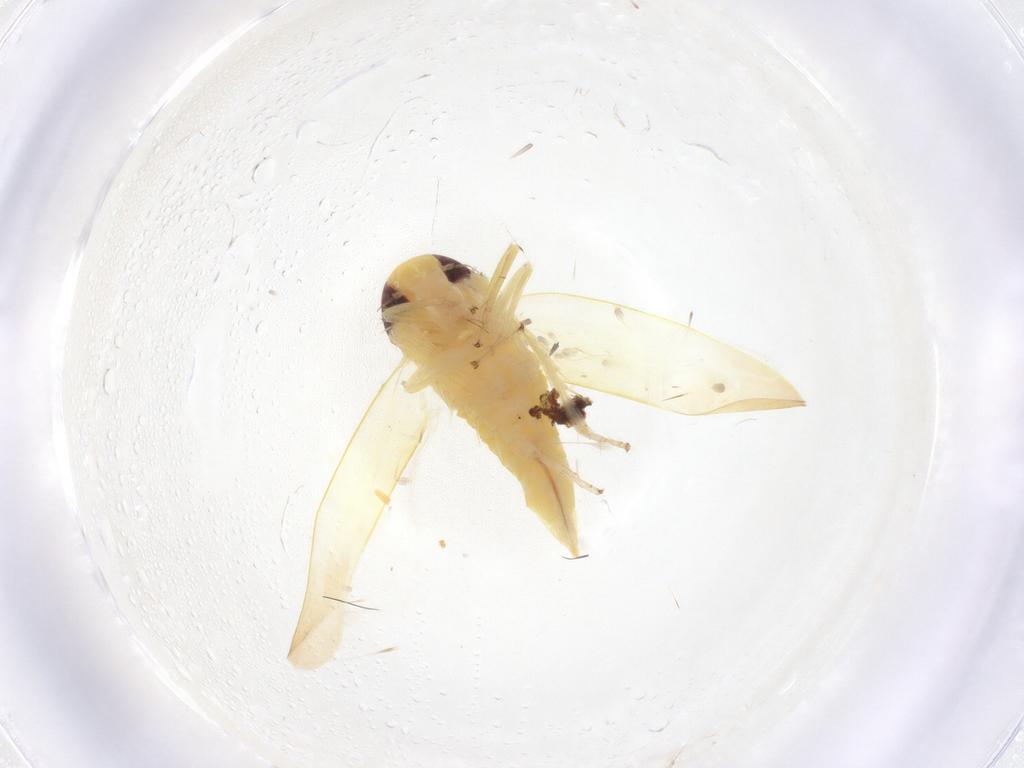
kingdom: Animalia
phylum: Arthropoda
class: Insecta
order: Hemiptera
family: Cicadellidae
